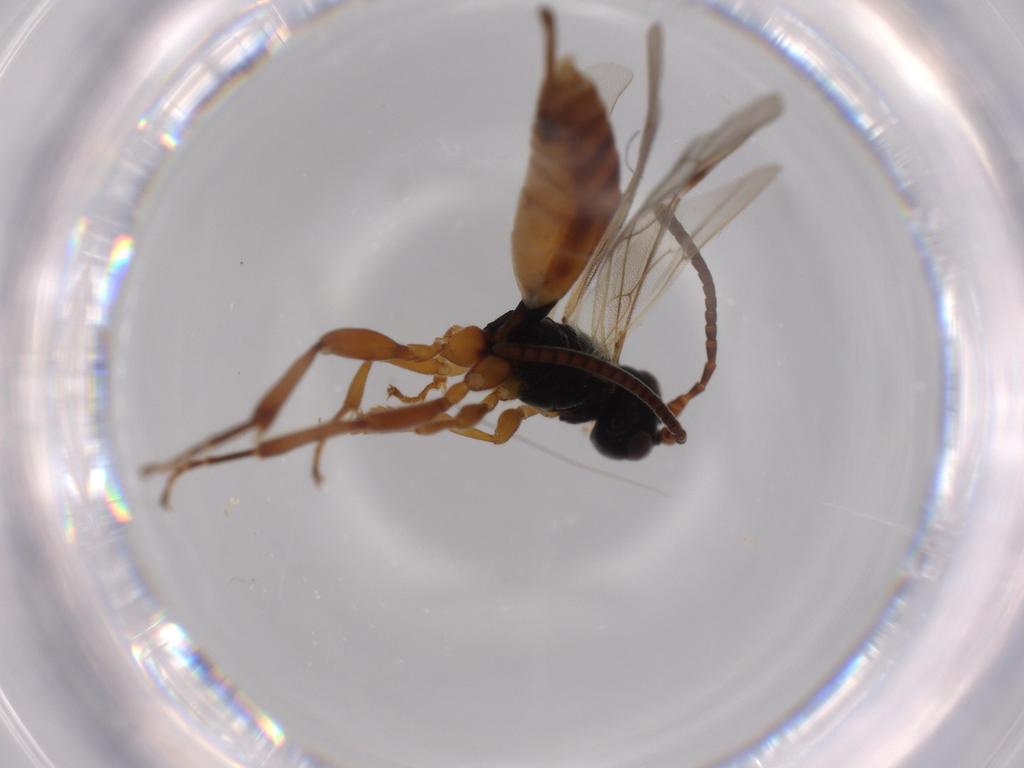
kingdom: Animalia
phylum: Arthropoda
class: Insecta
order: Hymenoptera
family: Braconidae
